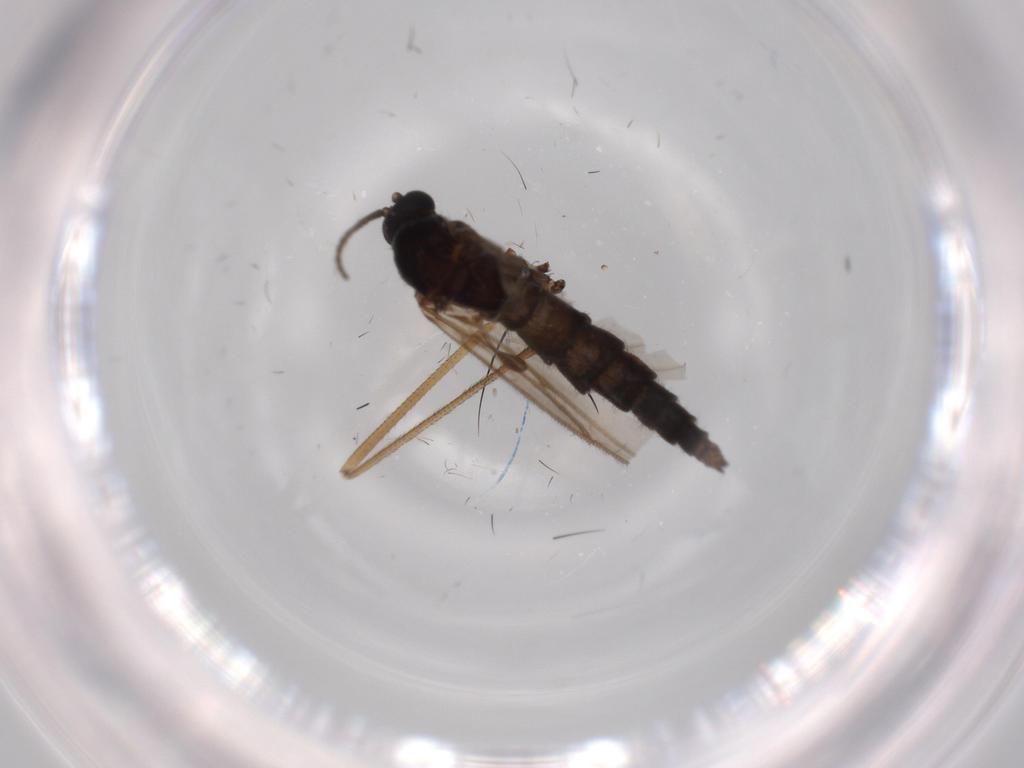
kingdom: Animalia
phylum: Arthropoda
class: Insecta
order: Diptera
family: Sciaridae
